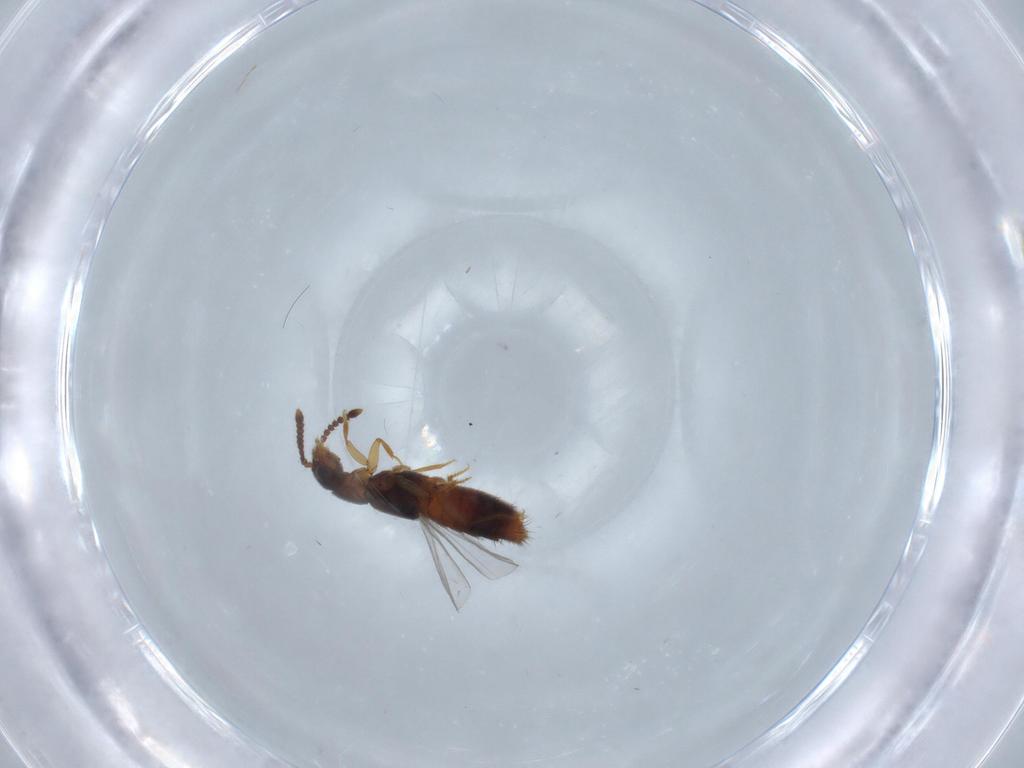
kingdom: Animalia
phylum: Arthropoda
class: Insecta
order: Coleoptera
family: Staphylinidae
